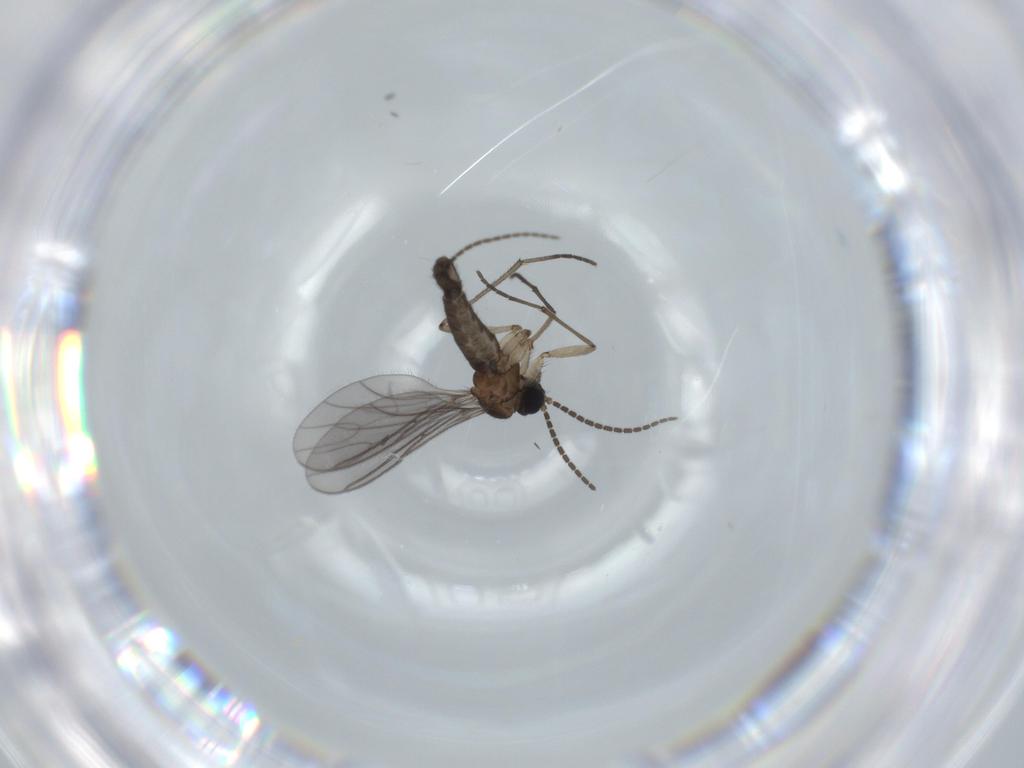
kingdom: Animalia
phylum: Arthropoda
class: Insecta
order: Diptera
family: Sciaridae
